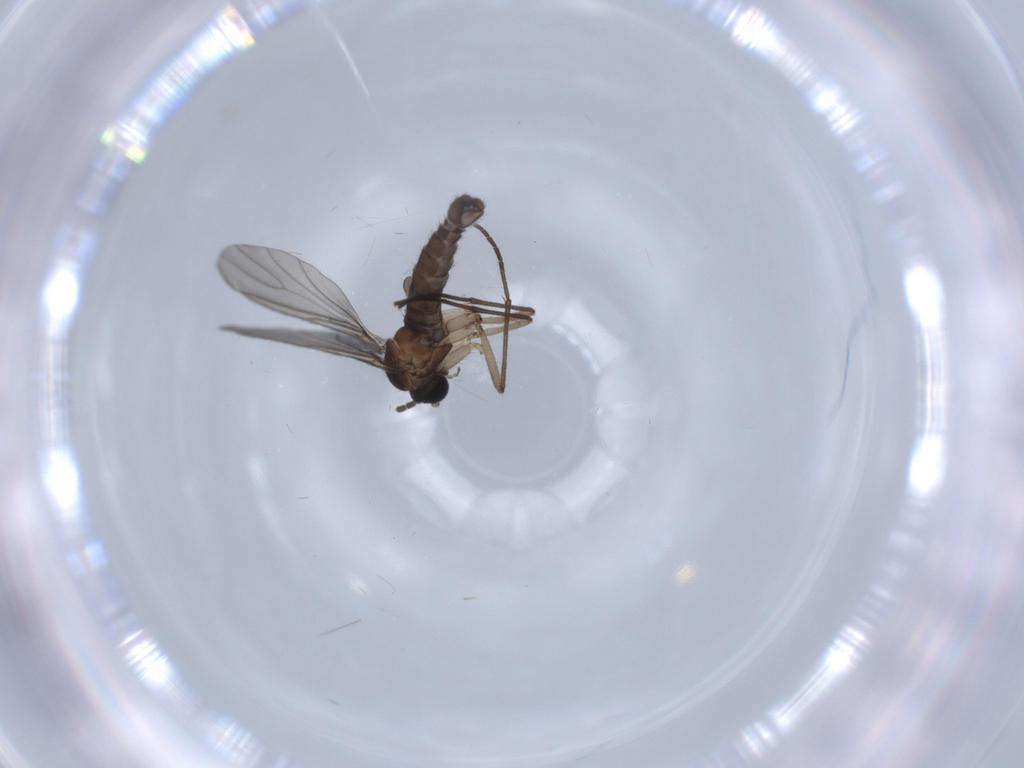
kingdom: Animalia
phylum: Arthropoda
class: Insecta
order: Diptera
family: Sciaridae
